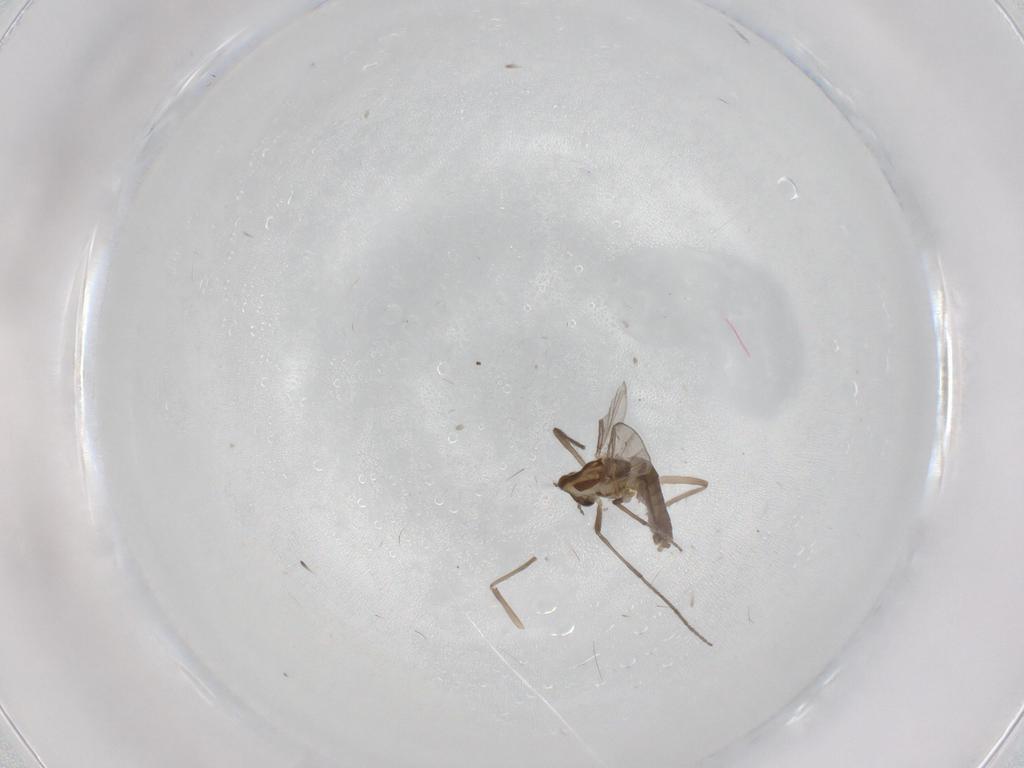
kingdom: Animalia
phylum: Arthropoda
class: Insecta
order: Diptera
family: Chironomidae
